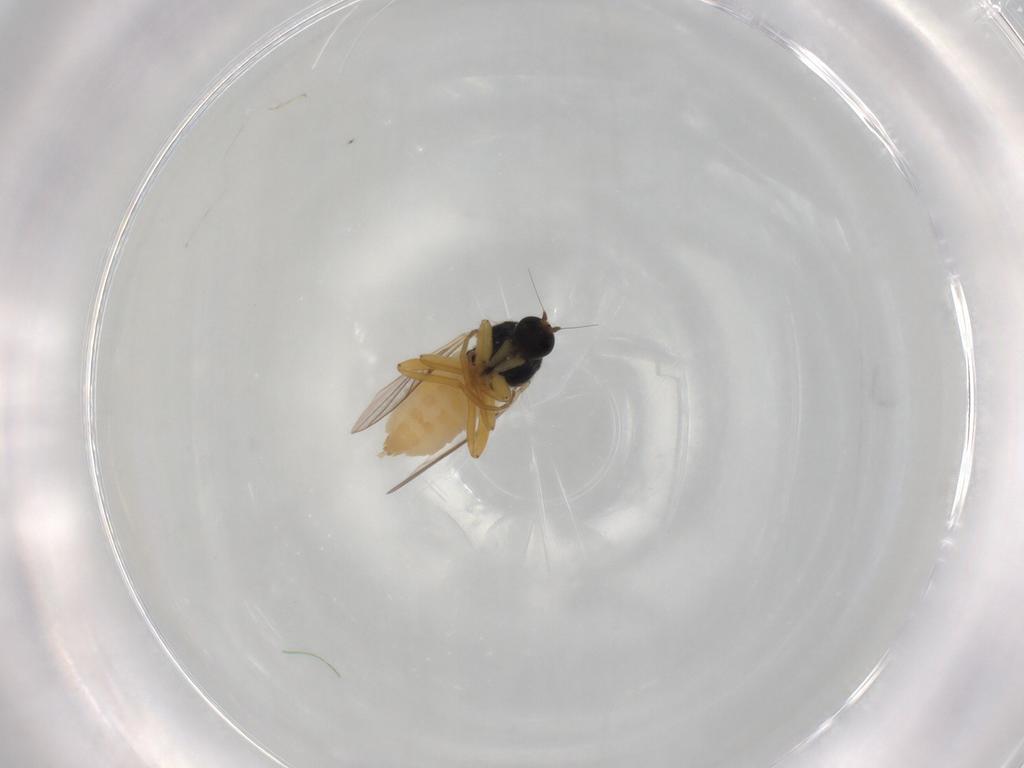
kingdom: Animalia
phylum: Arthropoda
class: Insecta
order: Diptera
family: Hybotidae
